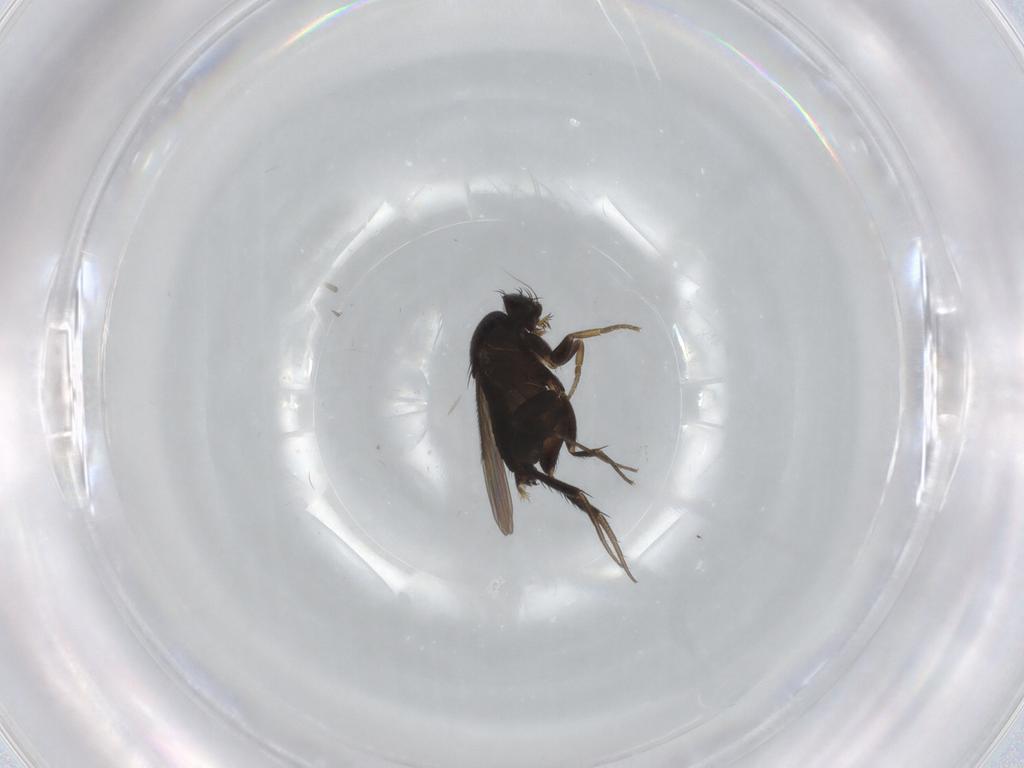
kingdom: Animalia
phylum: Arthropoda
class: Insecta
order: Diptera
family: Phoridae
